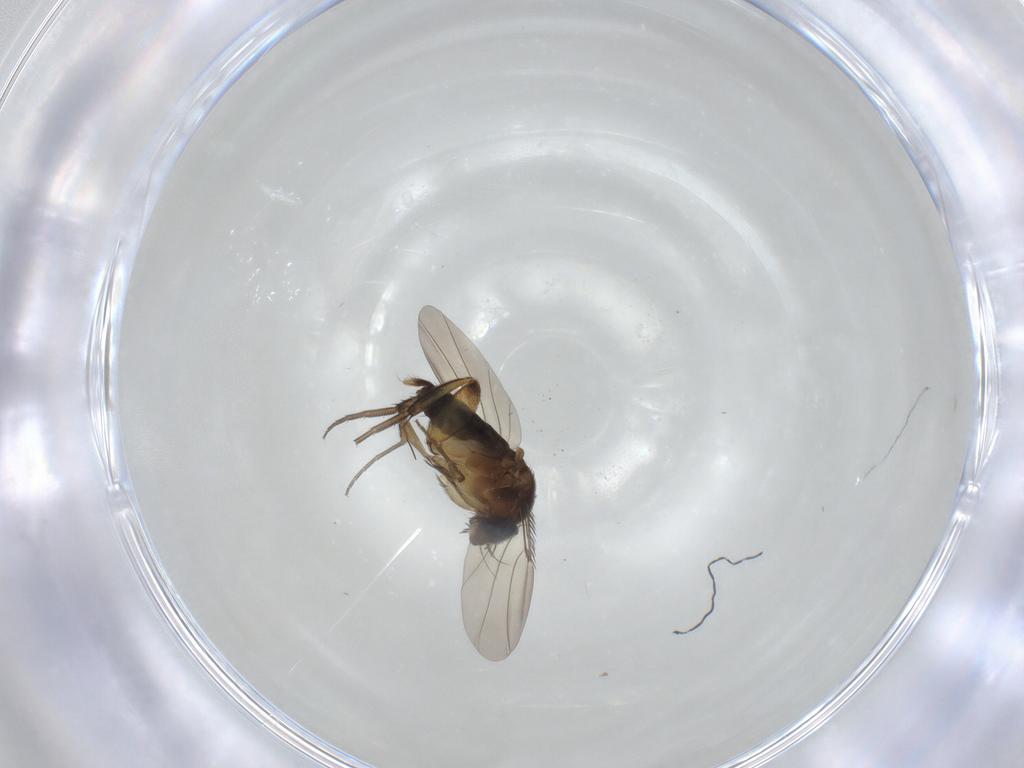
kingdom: Animalia
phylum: Arthropoda
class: Insecta
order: Diptera
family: Phoridae
